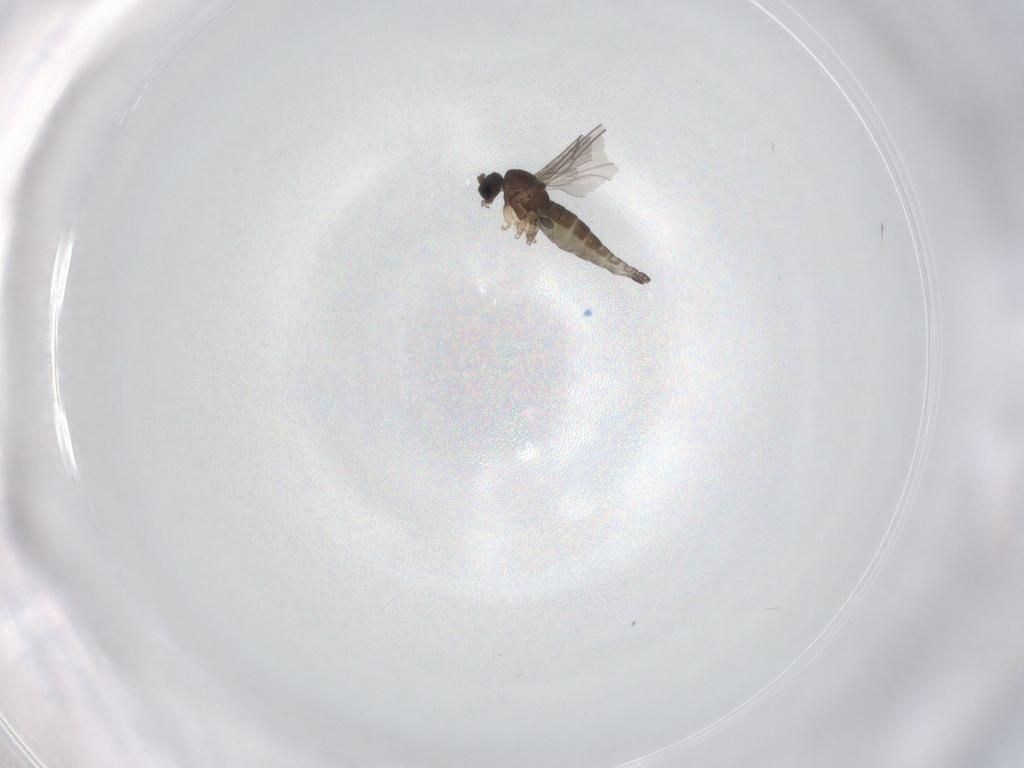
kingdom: Animalia
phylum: Arthropoda
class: Insecta
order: Diptera
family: Sciaridae
